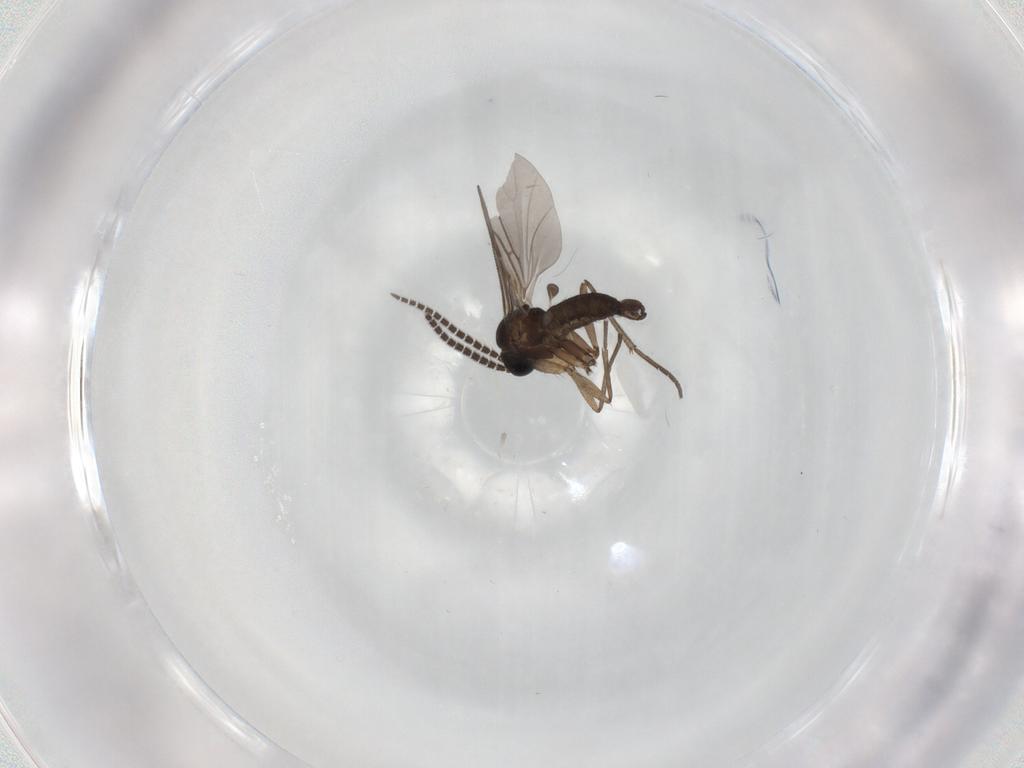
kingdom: Animalia
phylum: Arthropoda
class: Insecta
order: Diptera
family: Sciaridae
